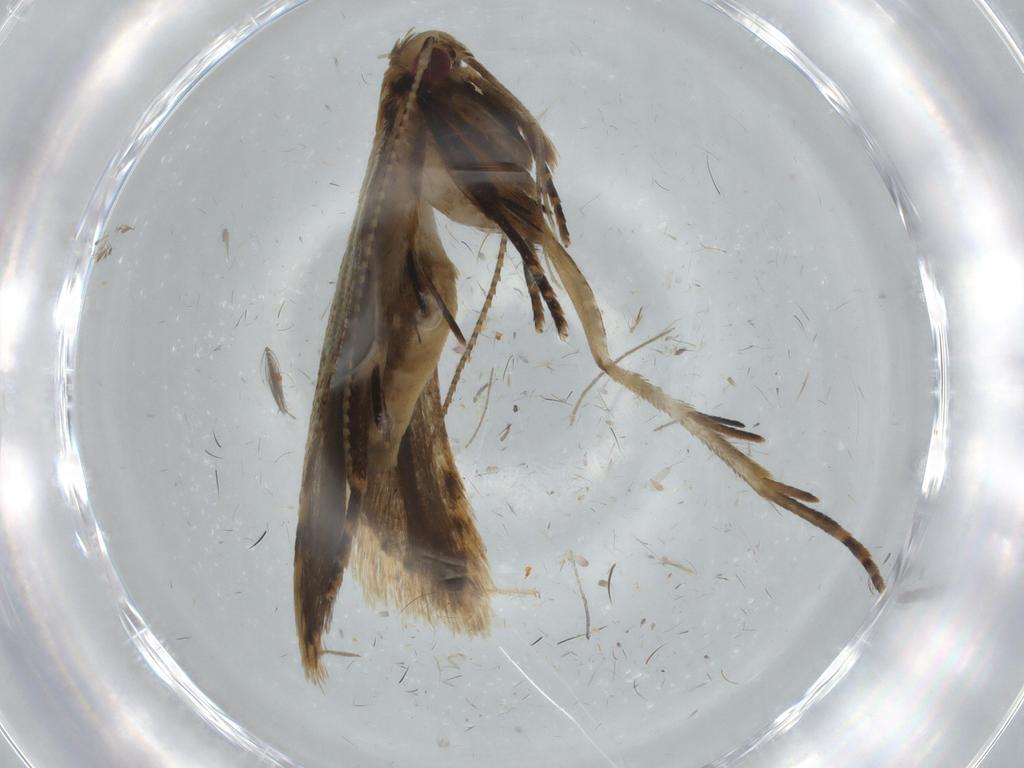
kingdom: Animalia
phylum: Arthropoda
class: Insecta
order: Lepidoptera
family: Gelechiidae
